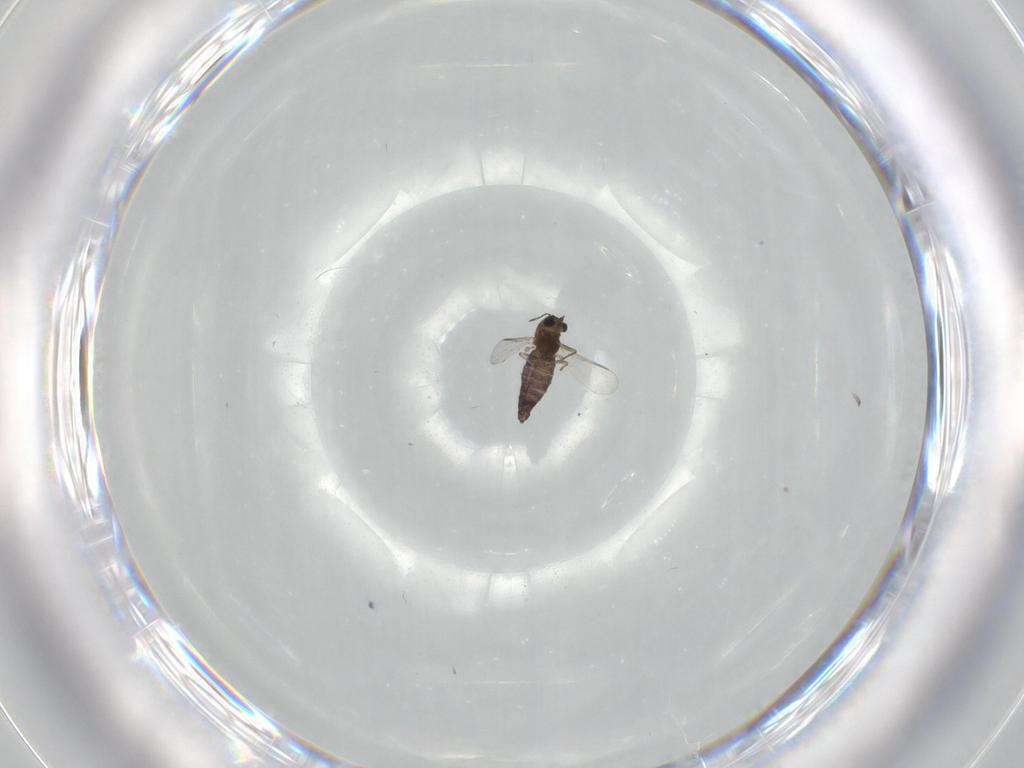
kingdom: Animalia
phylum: Arthropoda
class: Insecta
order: Diptera
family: Chironomidae
